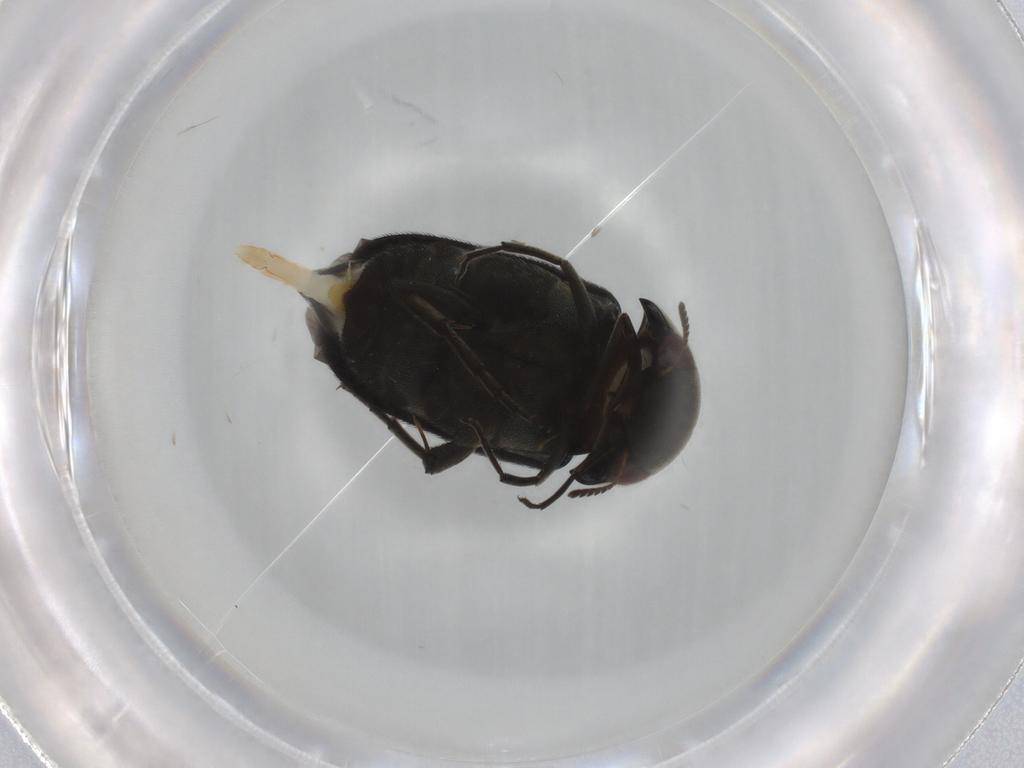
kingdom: Animalia
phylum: Arthropoda
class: Insecta
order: Coleoptera
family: Mordellidae
